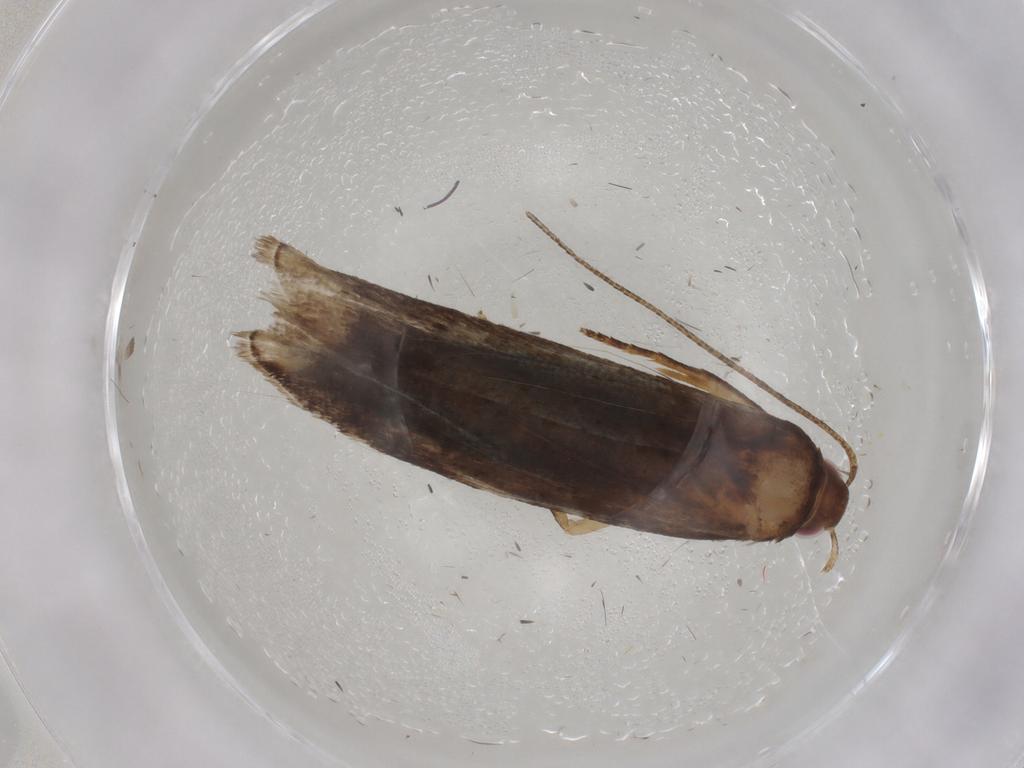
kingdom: Animalia
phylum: Arthropoda
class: Insecta
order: Lepidoptera
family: Gelechiidae
